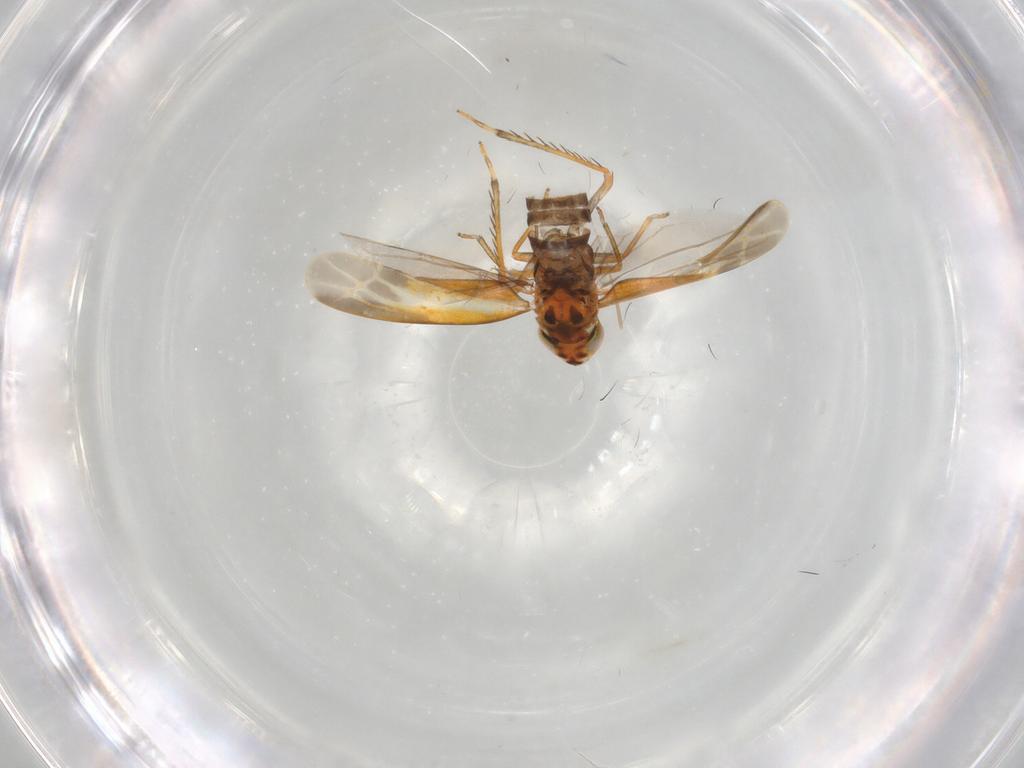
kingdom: Animalia
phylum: Arthropoda
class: Insecta
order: Hemiptera
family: Cicadellidae
